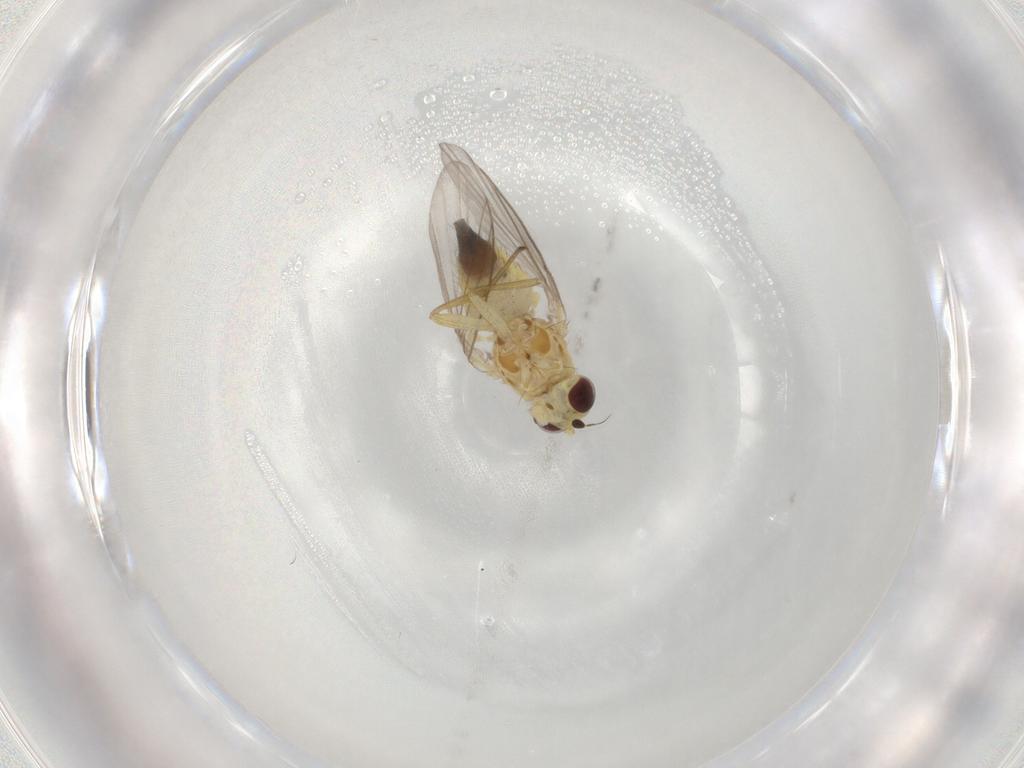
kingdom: Animalia
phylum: Arthropoda
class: Insecta
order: Diptera
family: Agromyzidae
